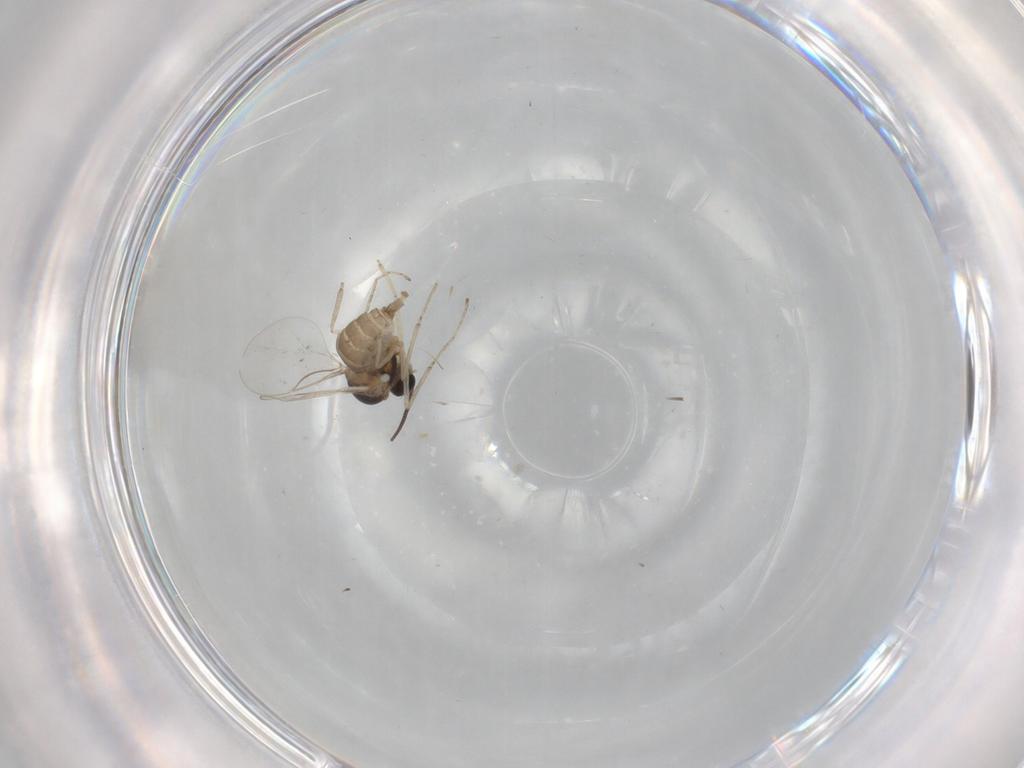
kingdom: Animalia
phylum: Arthropoda
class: Insecta
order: Diptera
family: Cecidomyiidae
